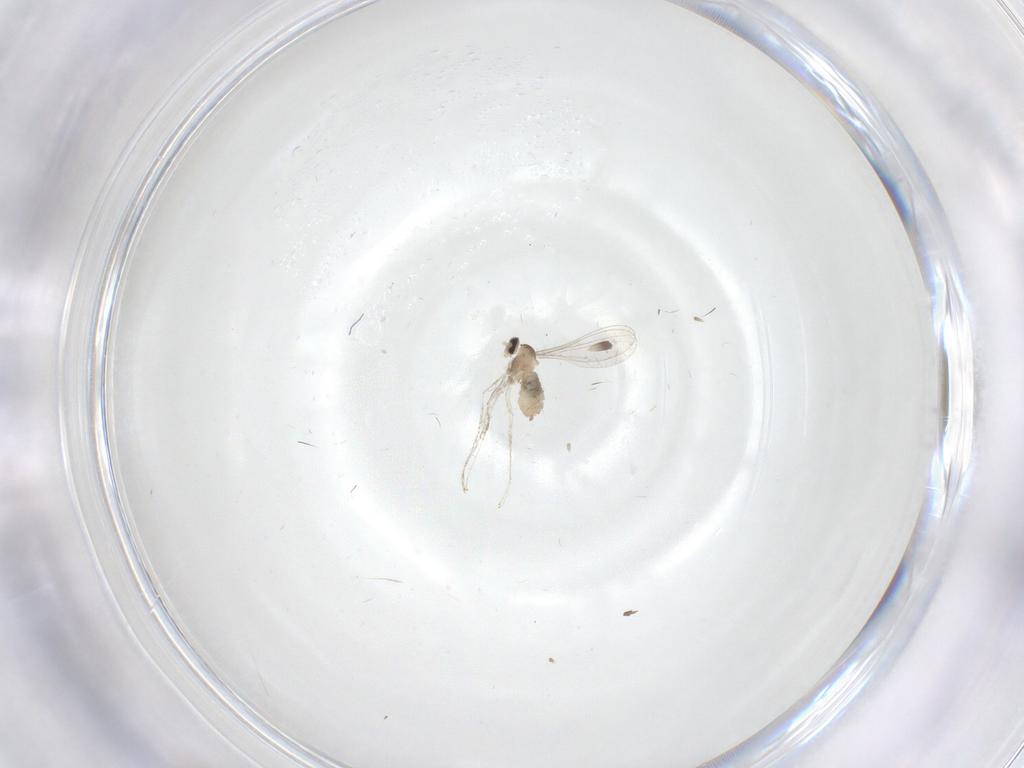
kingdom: Animalia
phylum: Arthropoda
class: Insecta
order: Diptera
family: Cecidomyiidae
